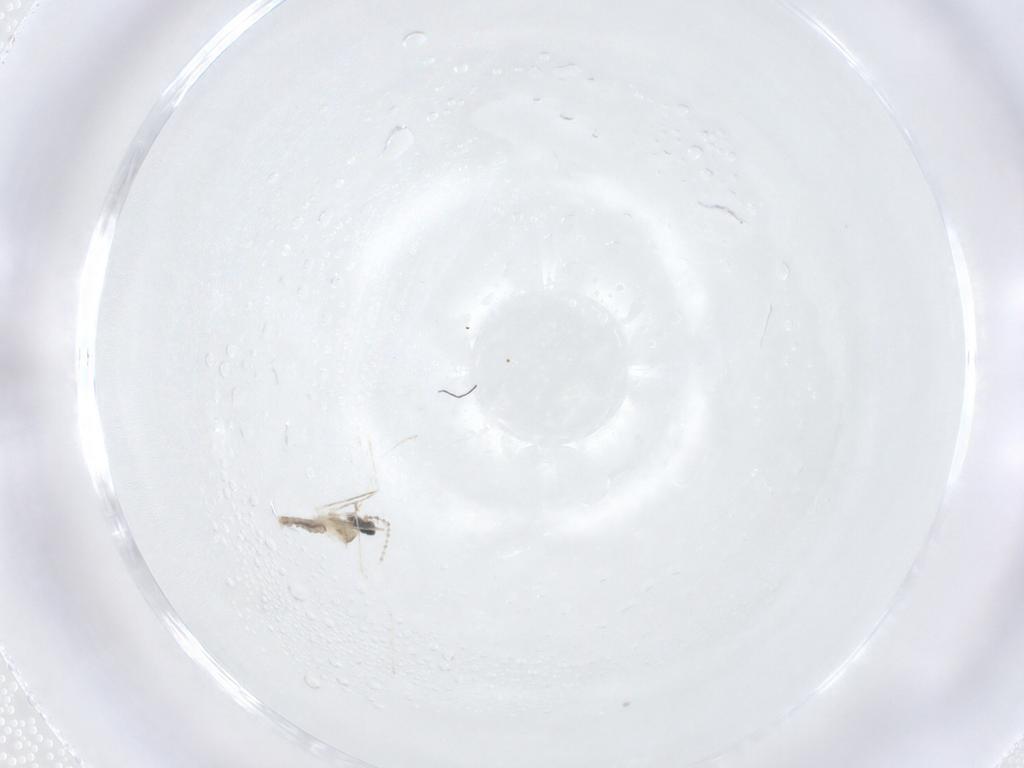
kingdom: Animalia
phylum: Arthropoda
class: Insecta
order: Diptera
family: Cecidomyiidae
